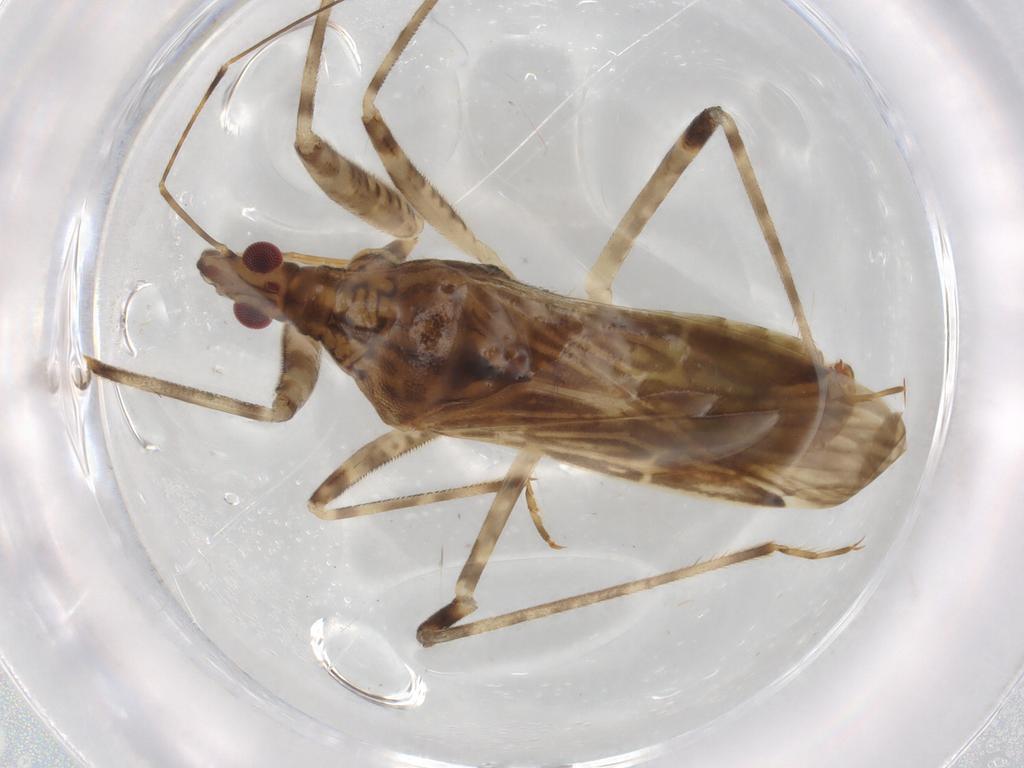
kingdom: Animalia
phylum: Arthropoda
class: Insecta
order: Hemiptera
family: Nabidae
